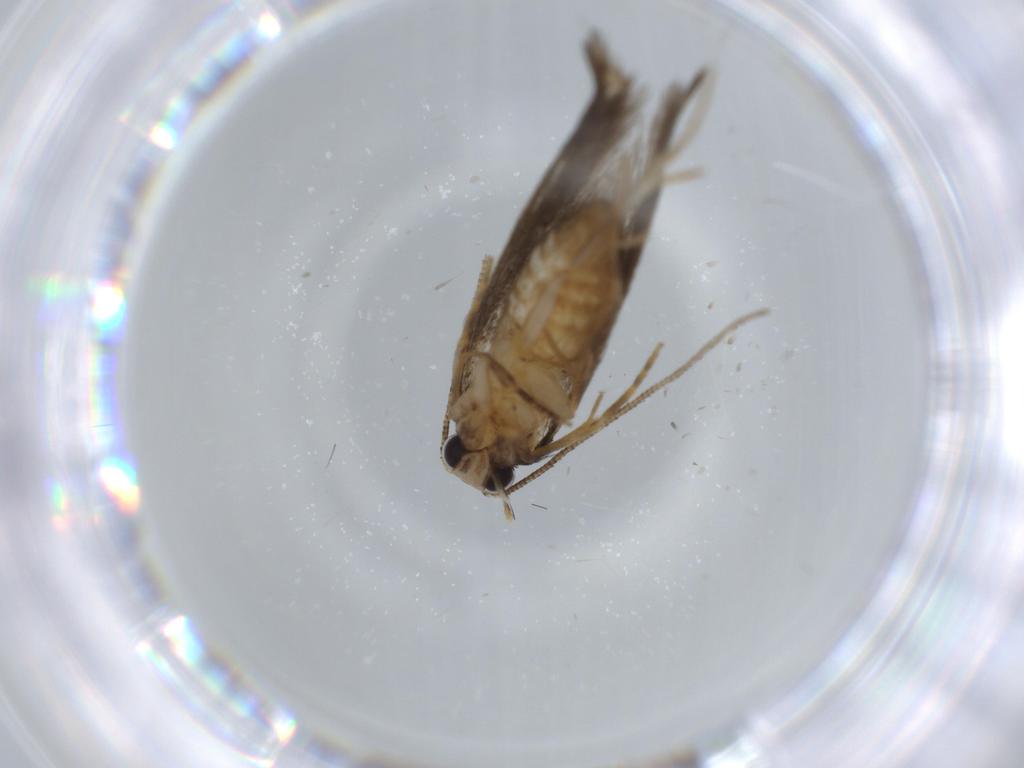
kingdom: Animalia
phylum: Arthropoda
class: Insecta
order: Lepidoptera
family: Tineidae
